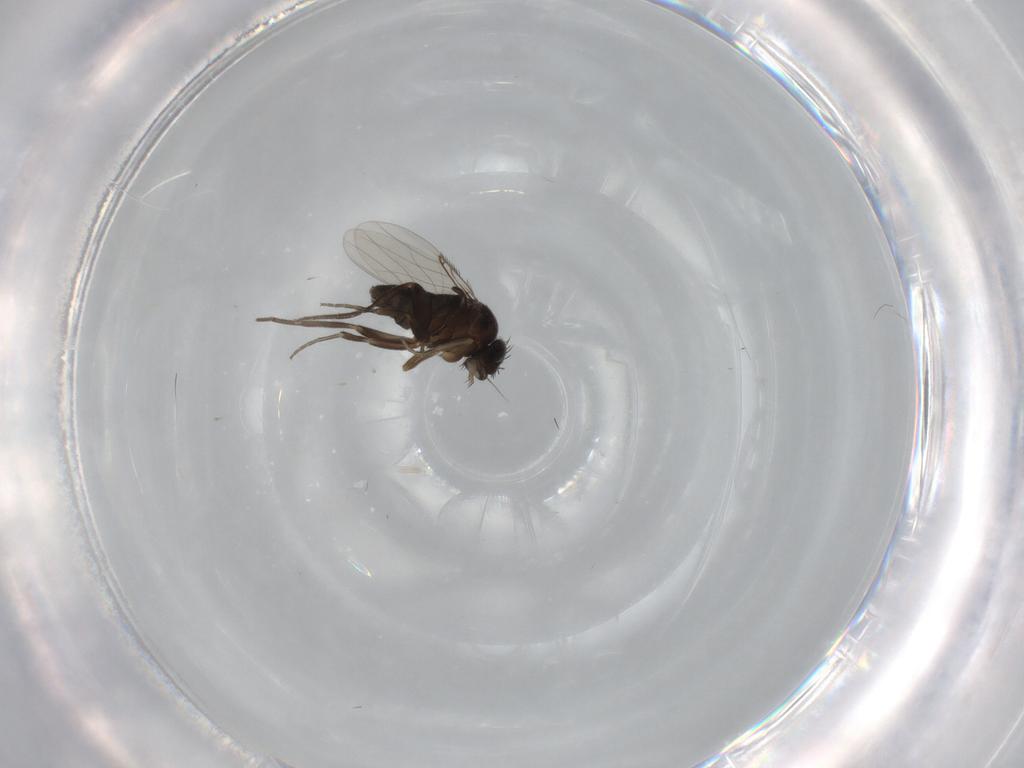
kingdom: Animalia
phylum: Arthropoda
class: Insecta
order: Diptera
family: Phoridae
